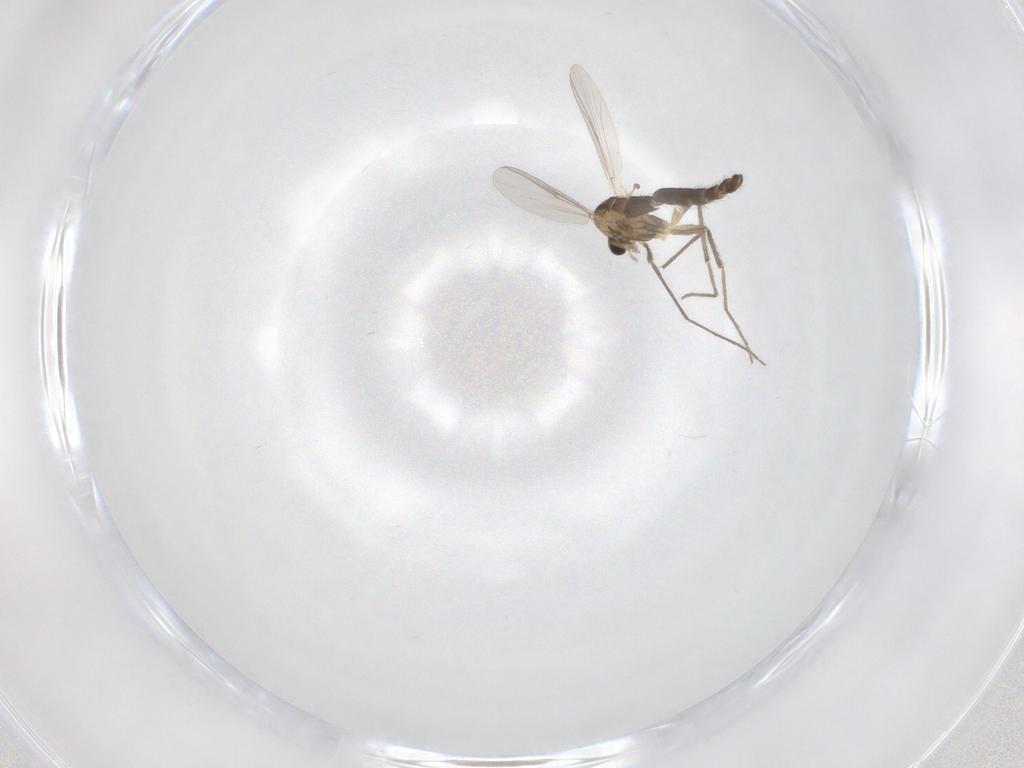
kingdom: Animalia
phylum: Arthropoda
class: Insecta
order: Diptera
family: Chironomidae
